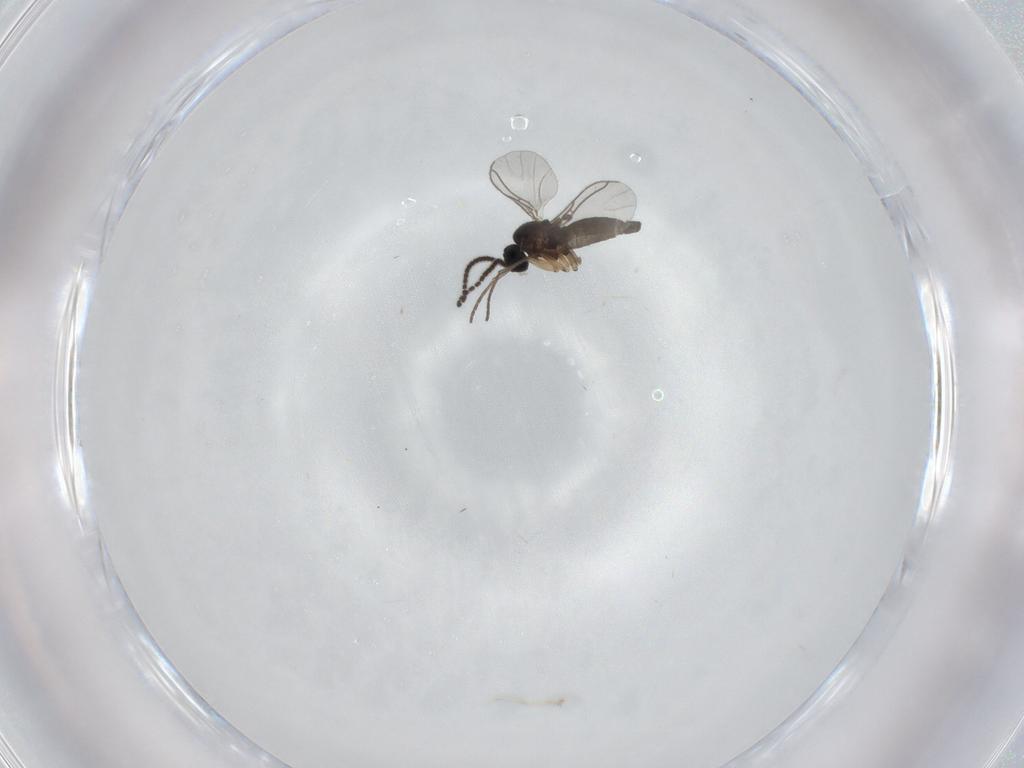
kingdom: Animalia
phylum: Arthropoda
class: Insecta
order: Diptera
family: Sciaridae
